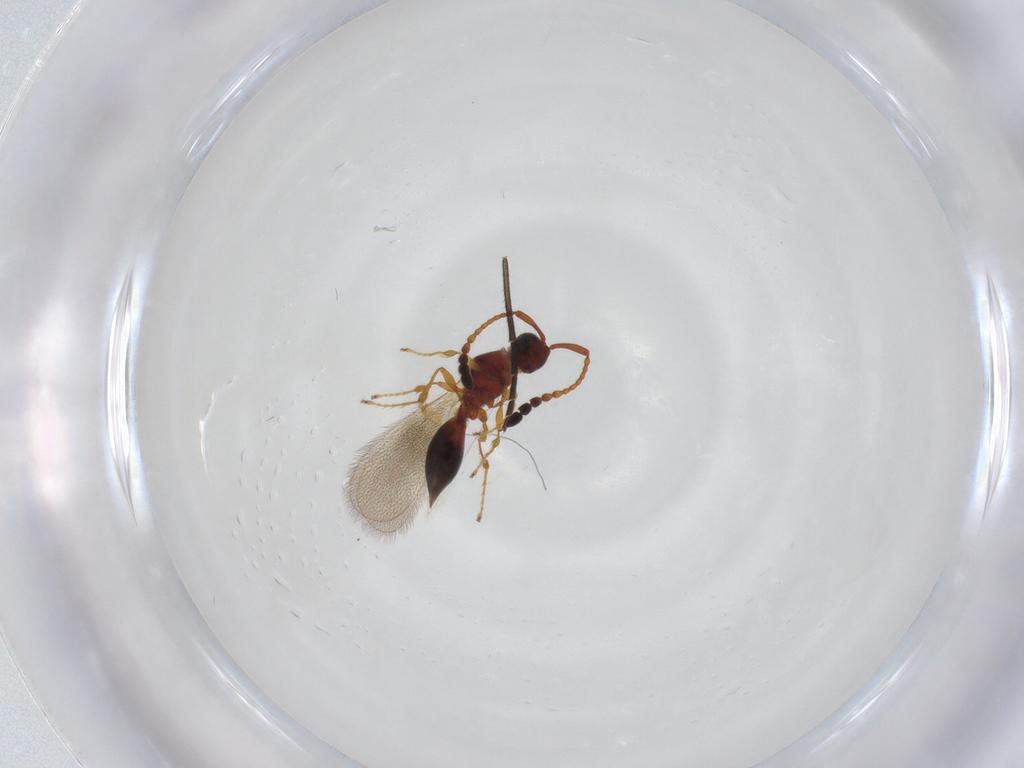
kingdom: Animalia
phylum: Arthropoda
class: Insecta
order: Hymenoptera
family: Diapriidae
